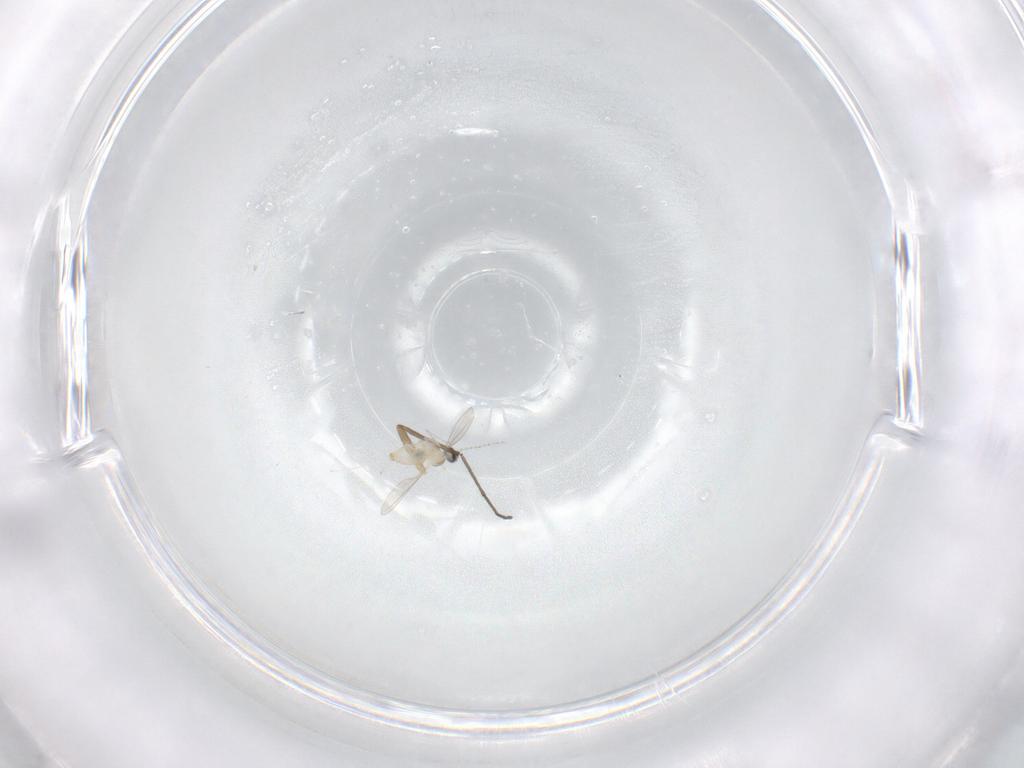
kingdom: Animalia
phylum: Arthropoda
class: Insecta
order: Diptera
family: Cecidomyiidae
